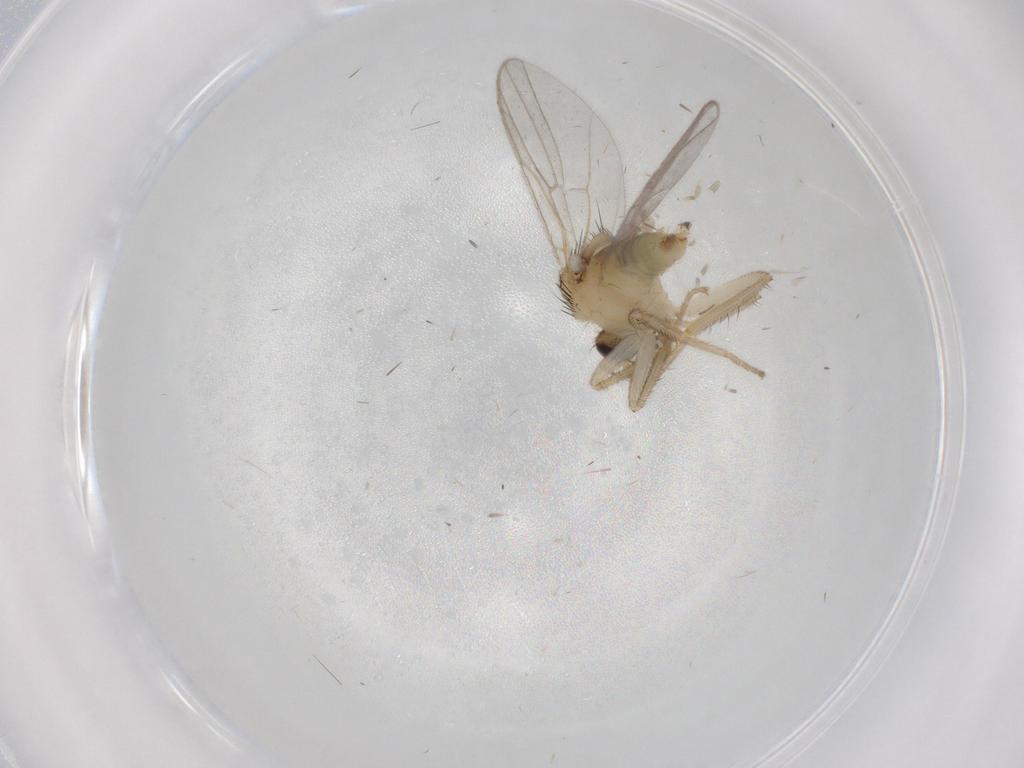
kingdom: Animalia
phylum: Arthropoda
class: Insecta
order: Diptera
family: Hybotidae
